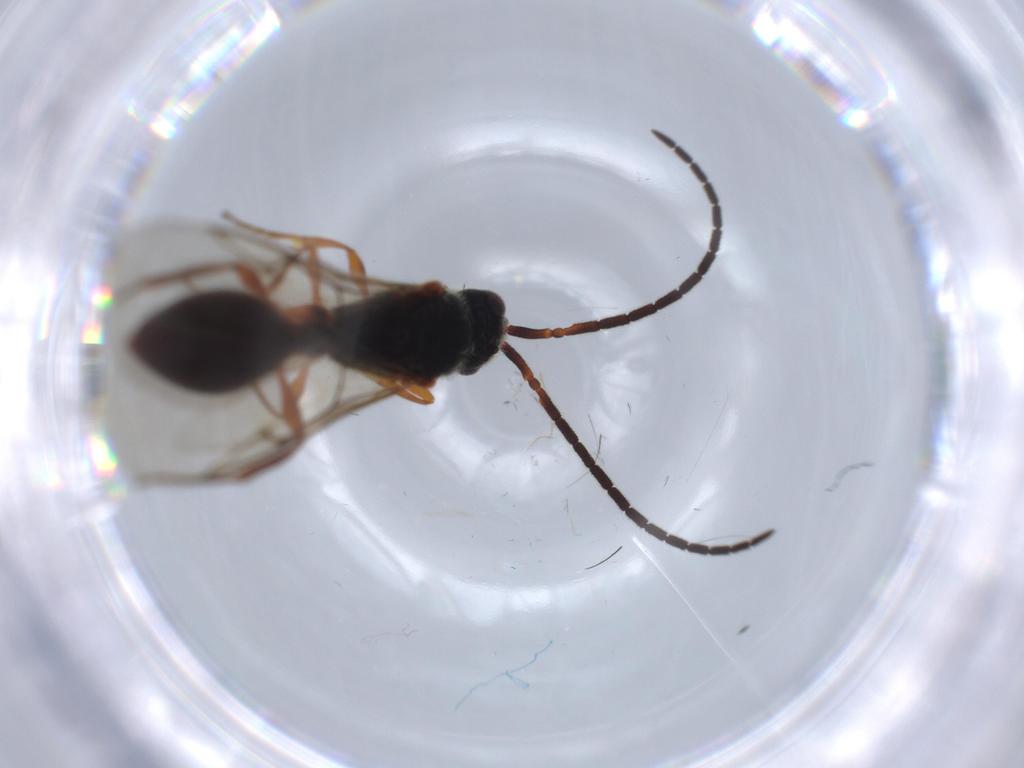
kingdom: Animalia
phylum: Arthropoda
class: Insecta
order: Hymenoptera
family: Diapriidae
